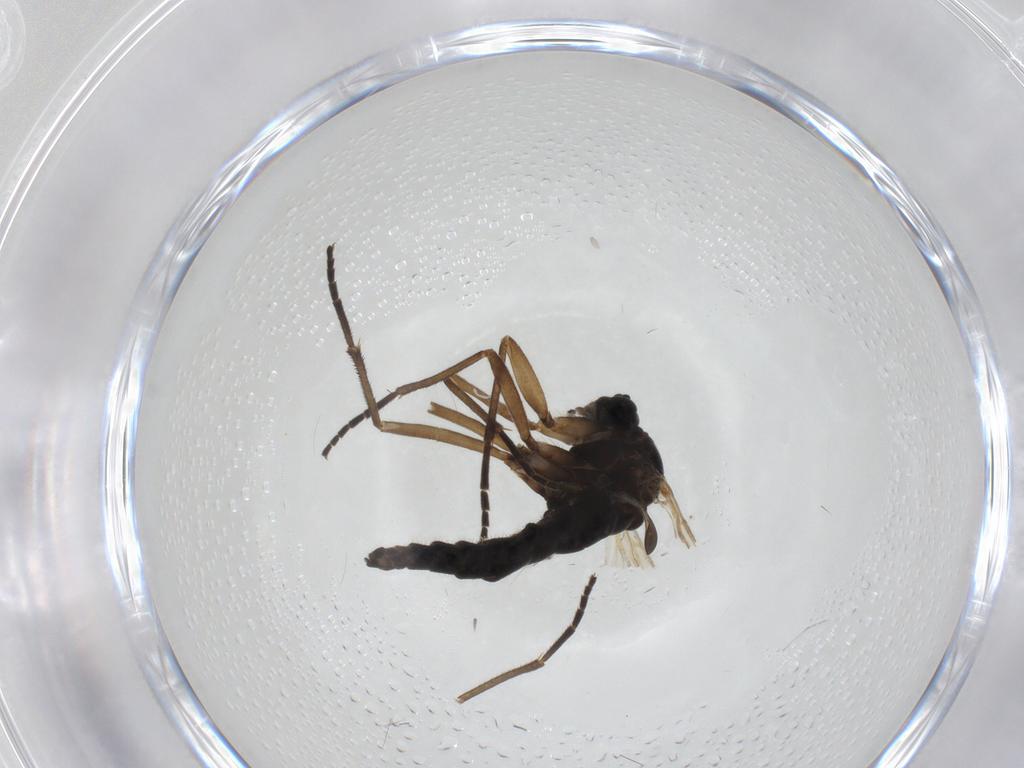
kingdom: Animalia
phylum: Arthropoda
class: Insecta
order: Diptera
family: Sciaridae
